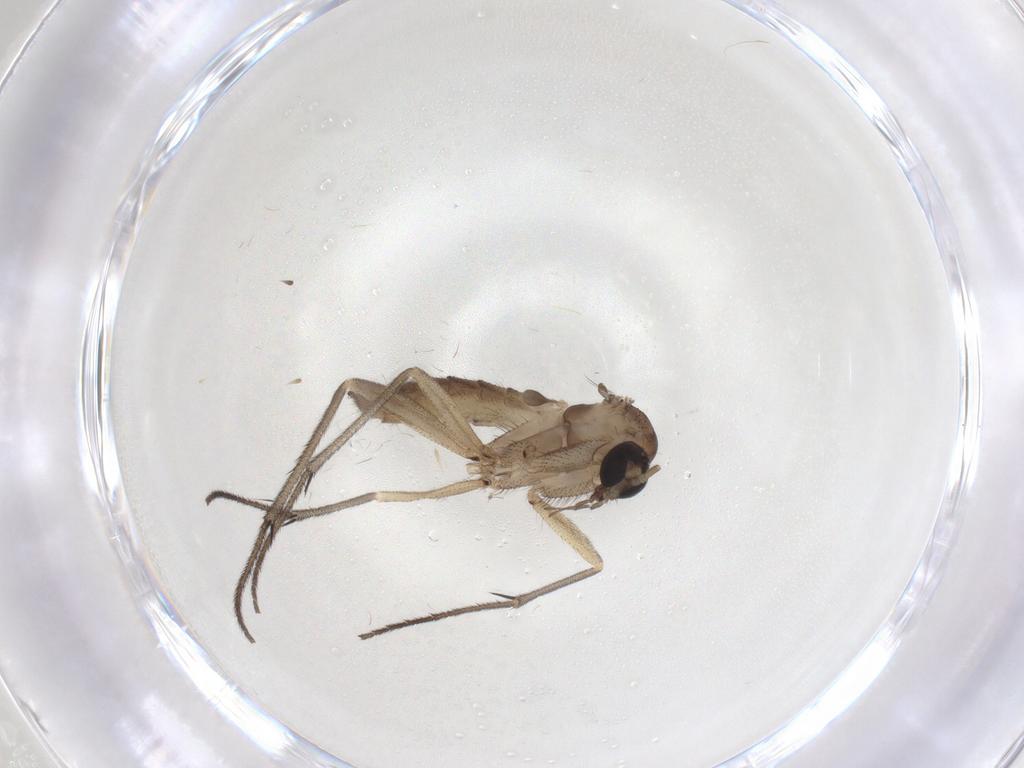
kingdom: Animalia
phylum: Arthropoda
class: Insecta
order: Diptera
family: Diadocidiidae
